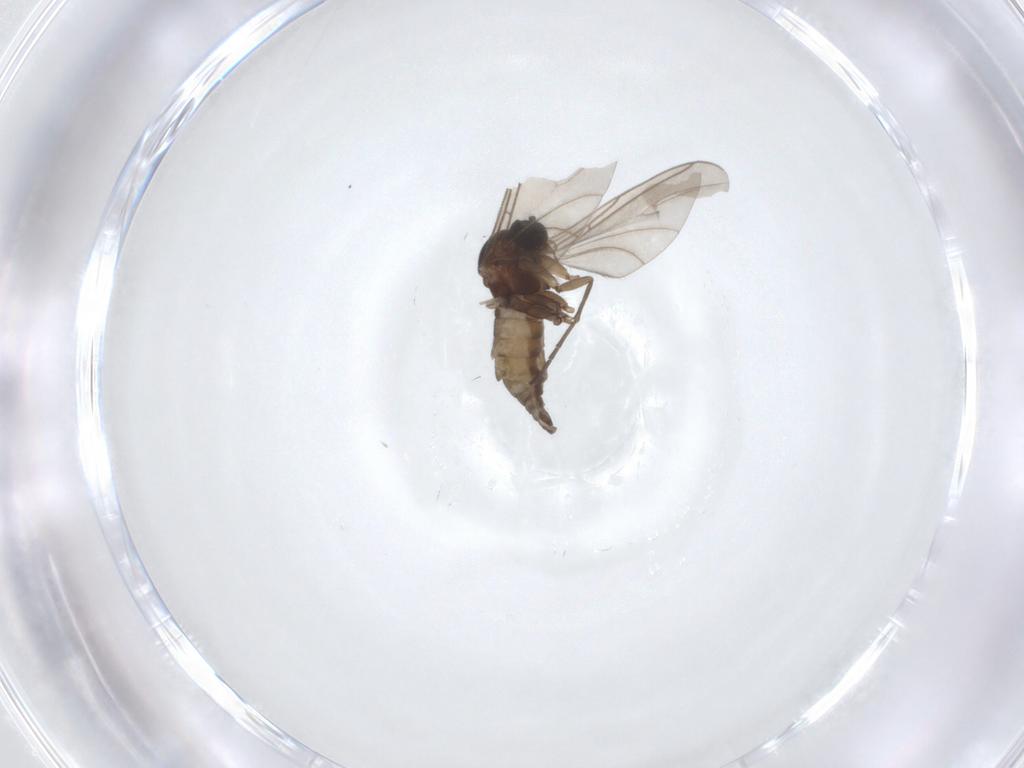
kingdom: Animalia
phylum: Arthropoda
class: Insecta
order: Diptera
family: Sciaridae
